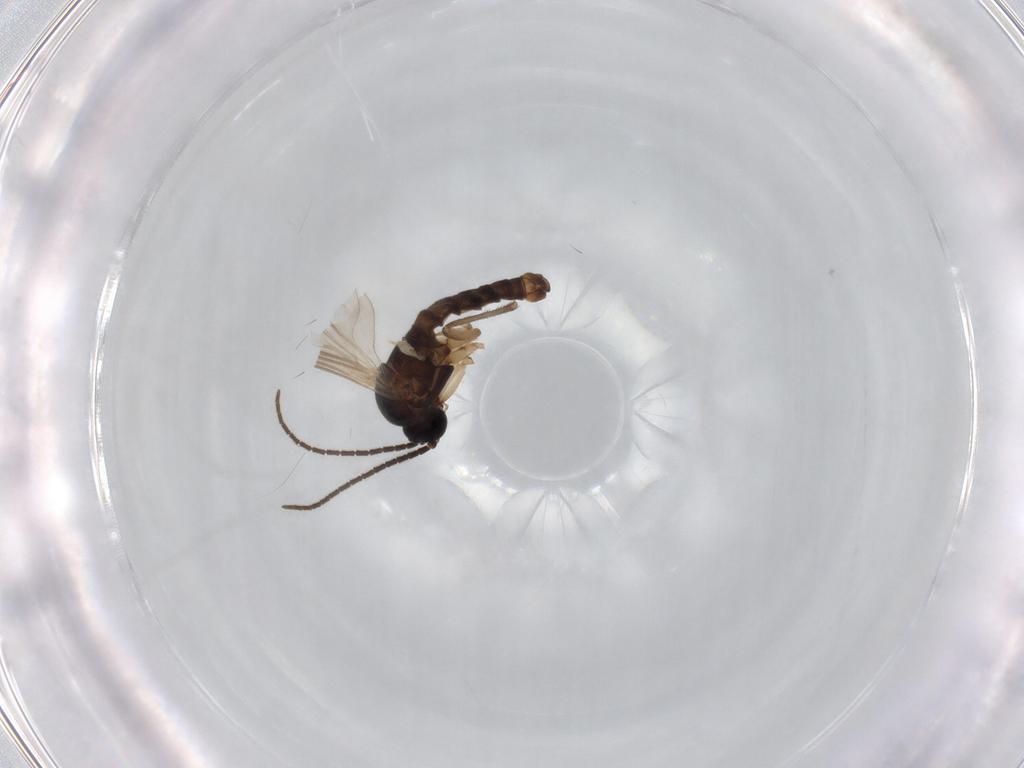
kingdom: Animalia
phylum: Arthropoda
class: Insecta
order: Diptera
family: Sciaridae
